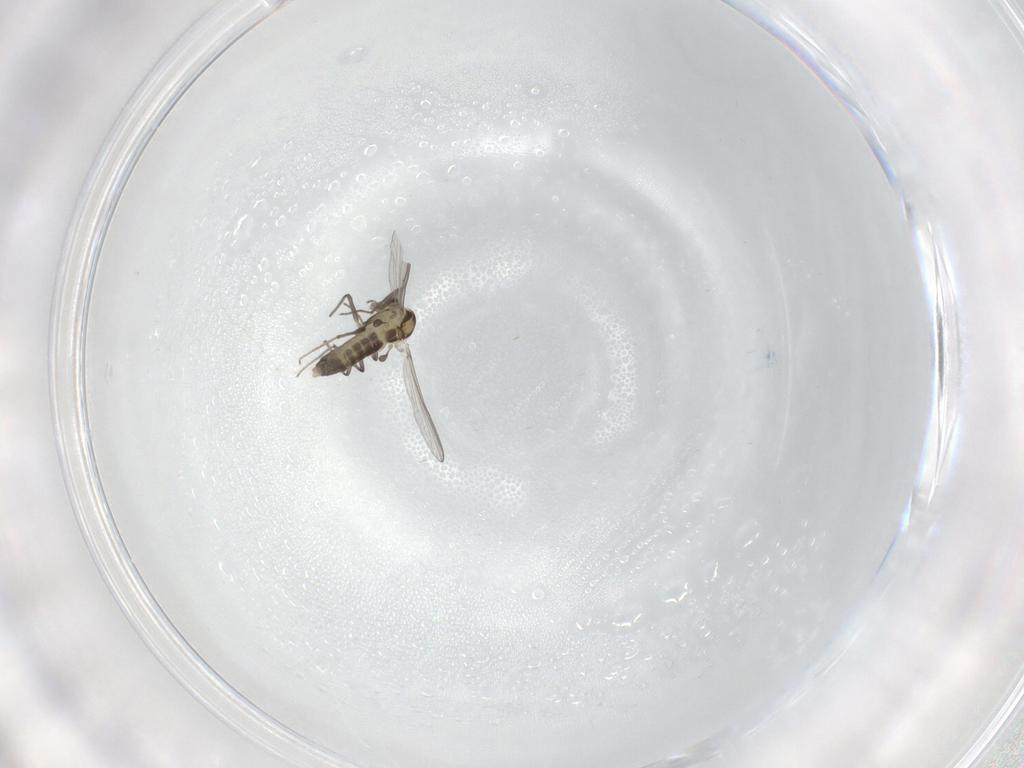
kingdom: Animalia
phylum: Arthropoda
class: Insecta
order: Diptera
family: Chironomidae
